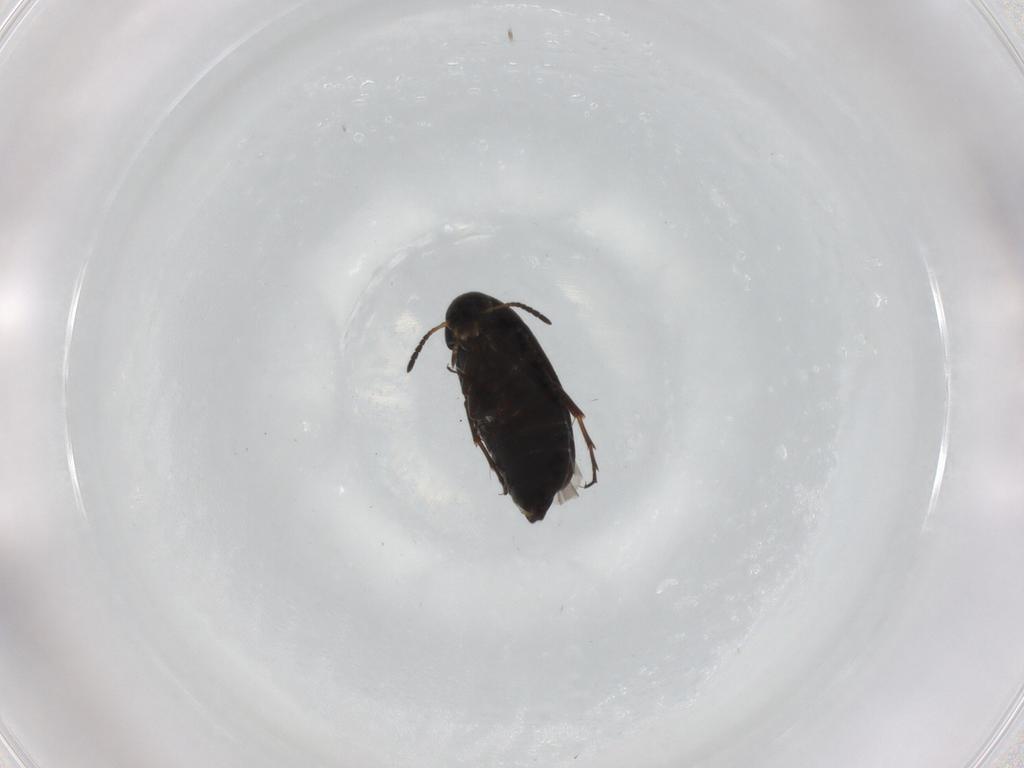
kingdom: Animalia
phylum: Arthropoda
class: Insecta
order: Coleoptera
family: Scraptiidae
